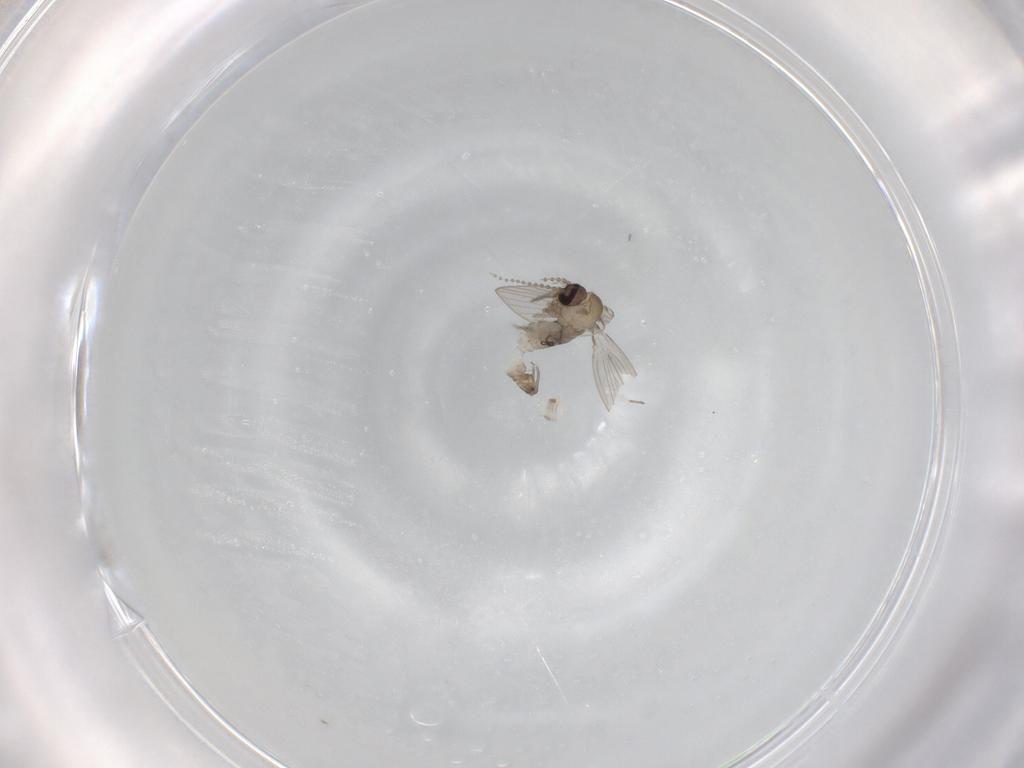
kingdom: Animalia
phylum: Arthropoda
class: Insecta
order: Diptera
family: Psychodidae
